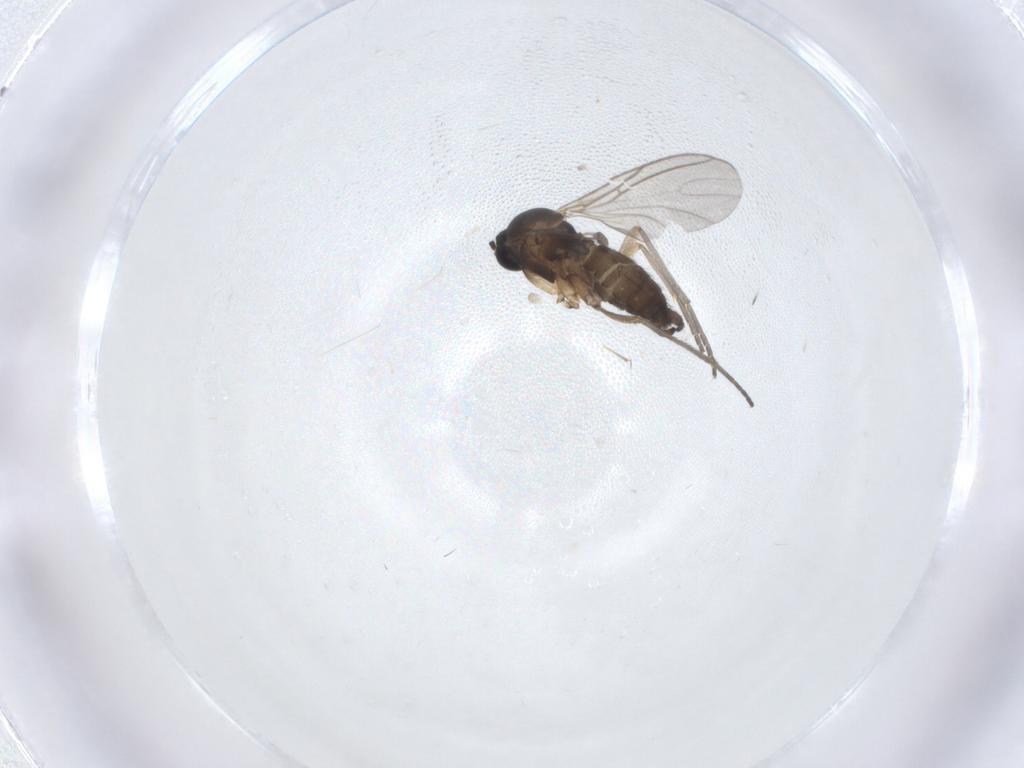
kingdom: Animalia
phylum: Arthropoda
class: Insecta
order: Diptera
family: Sciaridae
